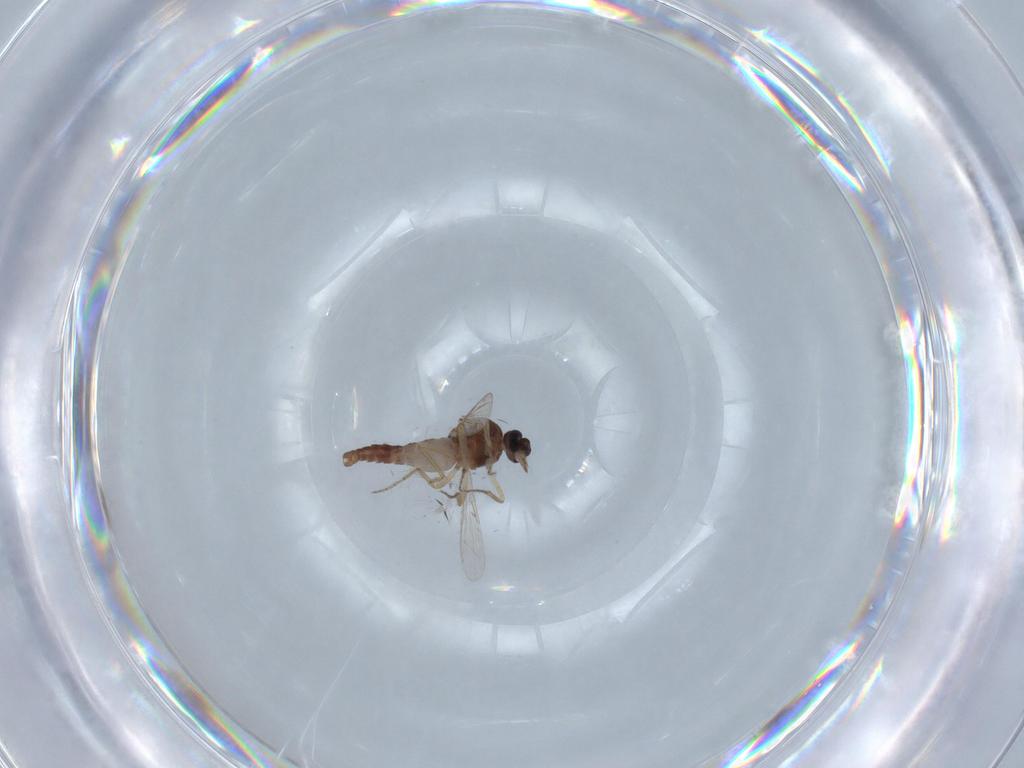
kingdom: Animalia
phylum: Arthropoda
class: Insecta
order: Diptera
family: Ceratopogonidae
